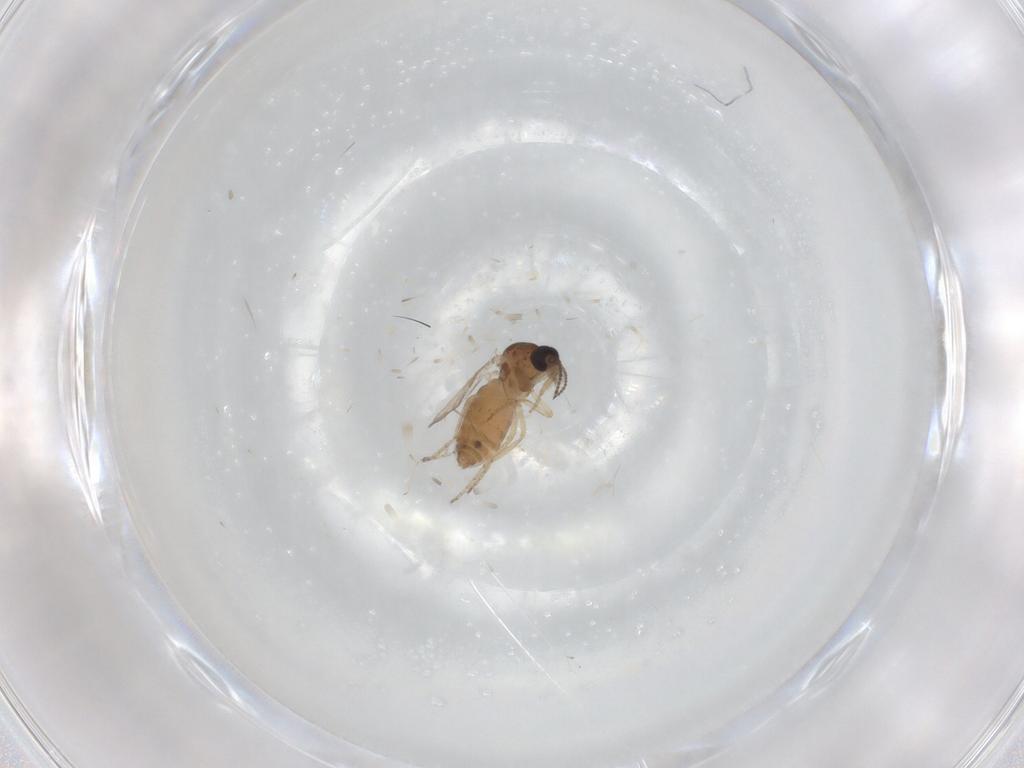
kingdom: Animalia
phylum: Arthropoda
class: Insecta
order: Diptera
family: Ceratopogonidae
